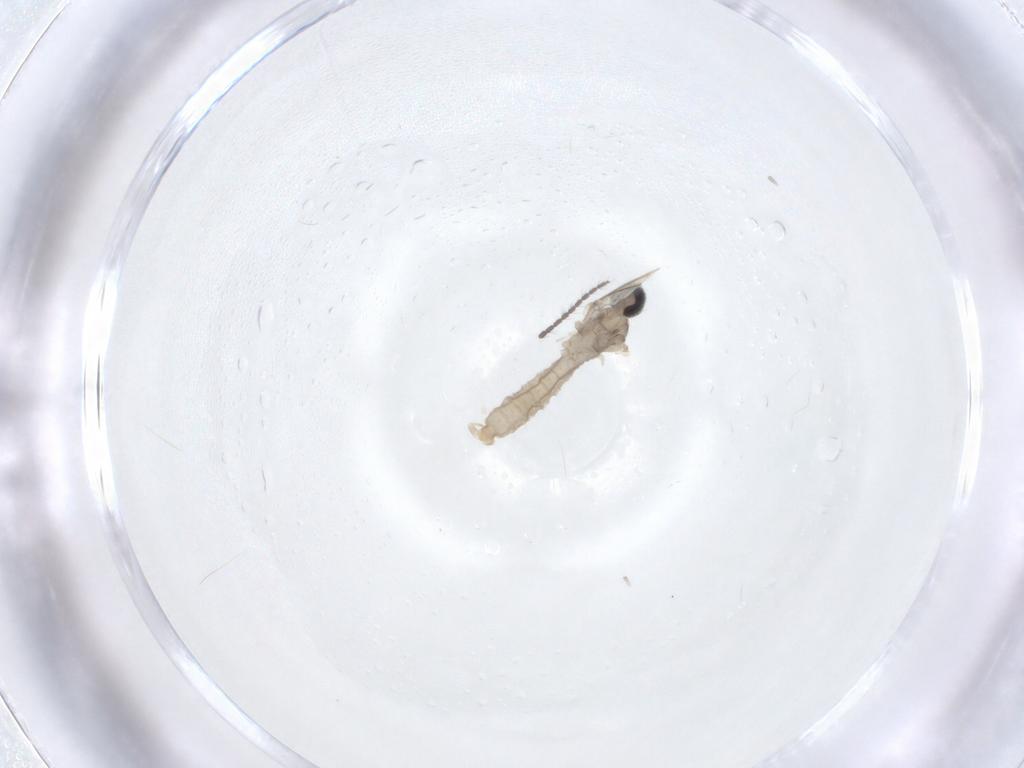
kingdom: Animalia
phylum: Arthropoda
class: Insecta
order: Diptera
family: Cecidomyiidae
